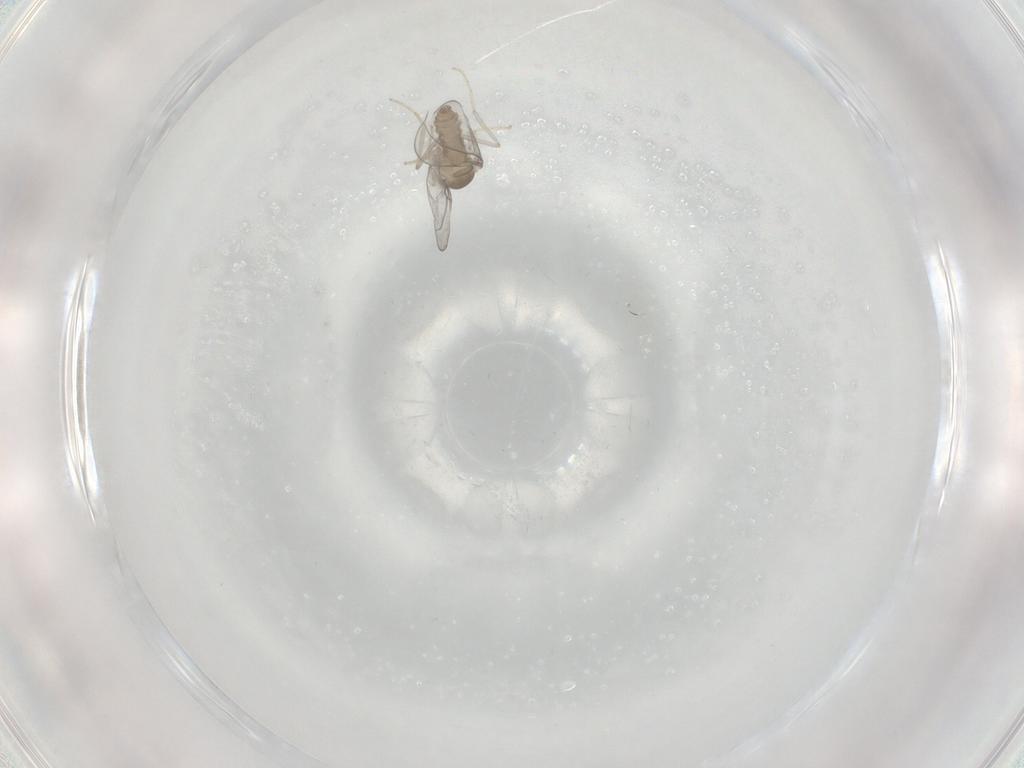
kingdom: Animalia
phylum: Arthropoda
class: Insecta
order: Diptera
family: Cecidomyiidae
